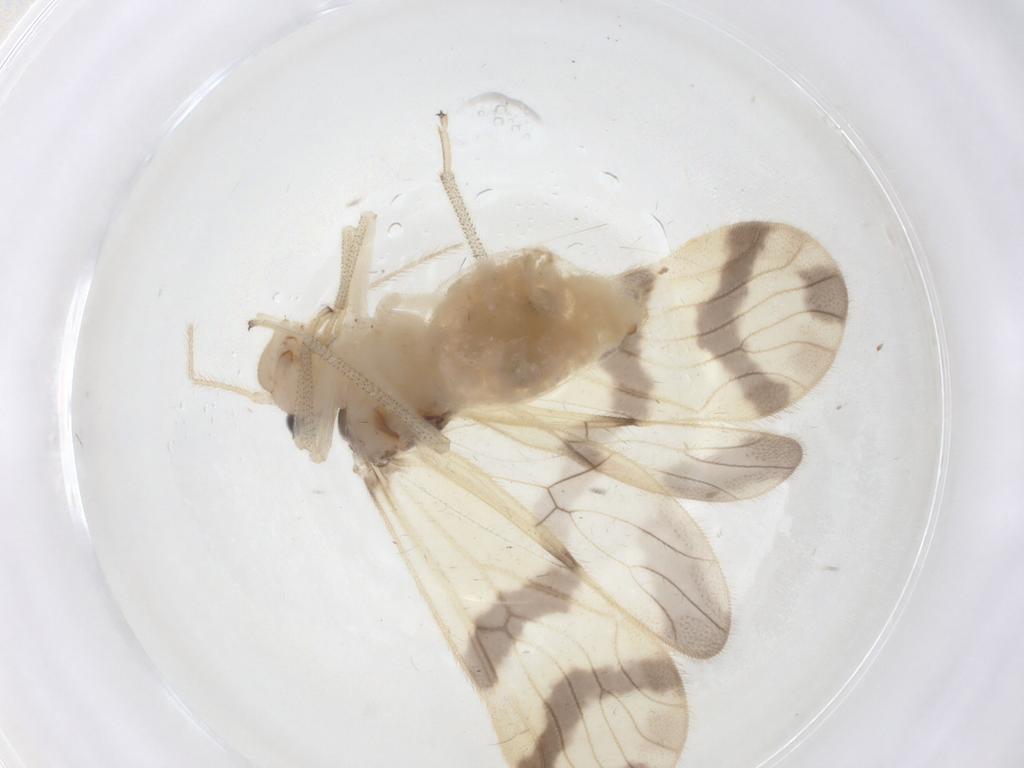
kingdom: Animalia
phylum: Arthropoda
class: Insecta
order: Psocodea
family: Amphipsocidae
